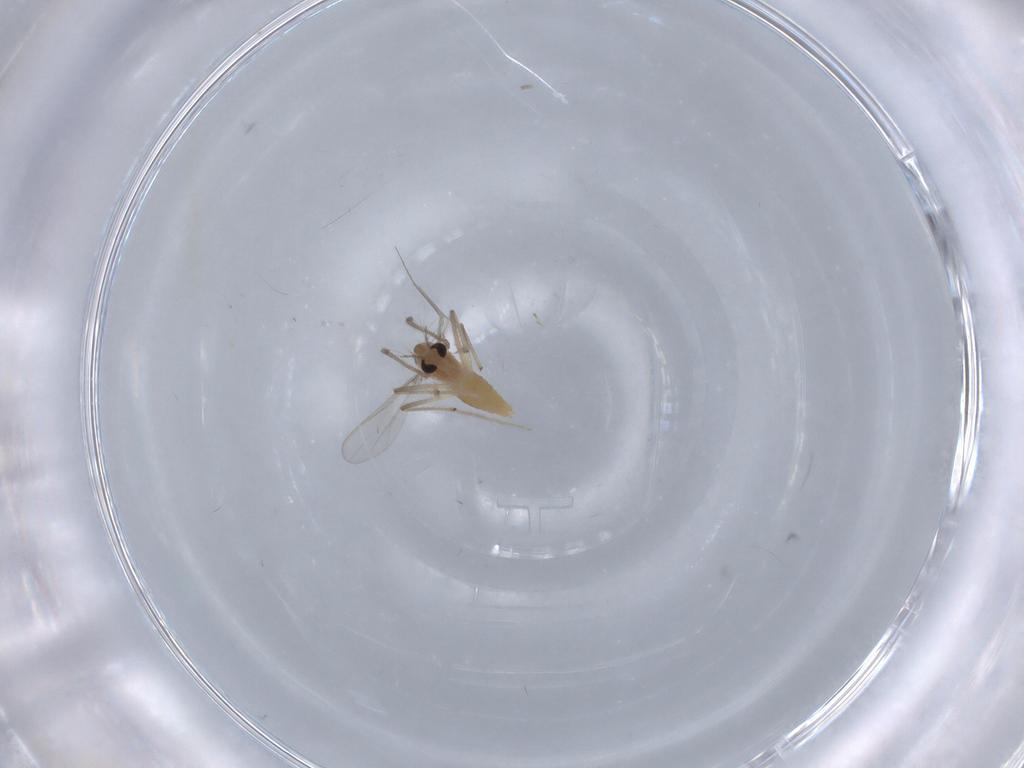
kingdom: Animalia
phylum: Arthropoda
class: Insecta
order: Diptera
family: Chironomidae
